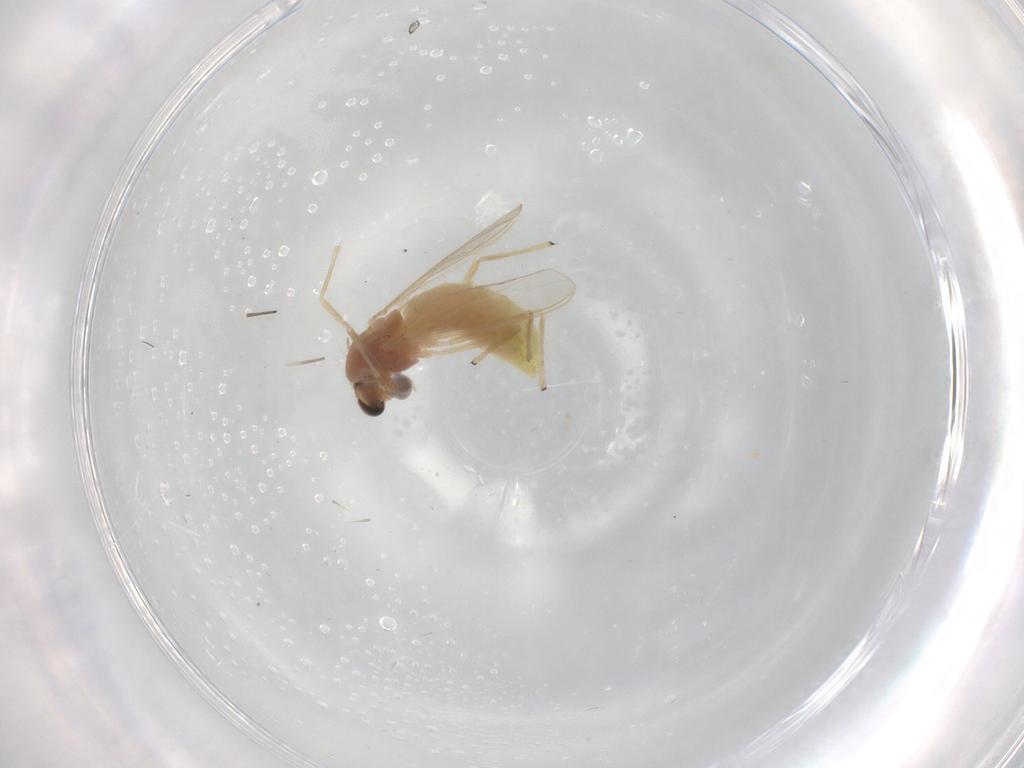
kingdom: Animalia
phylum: Arthropoda
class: Insecta
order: Diptera
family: Chironomidae
